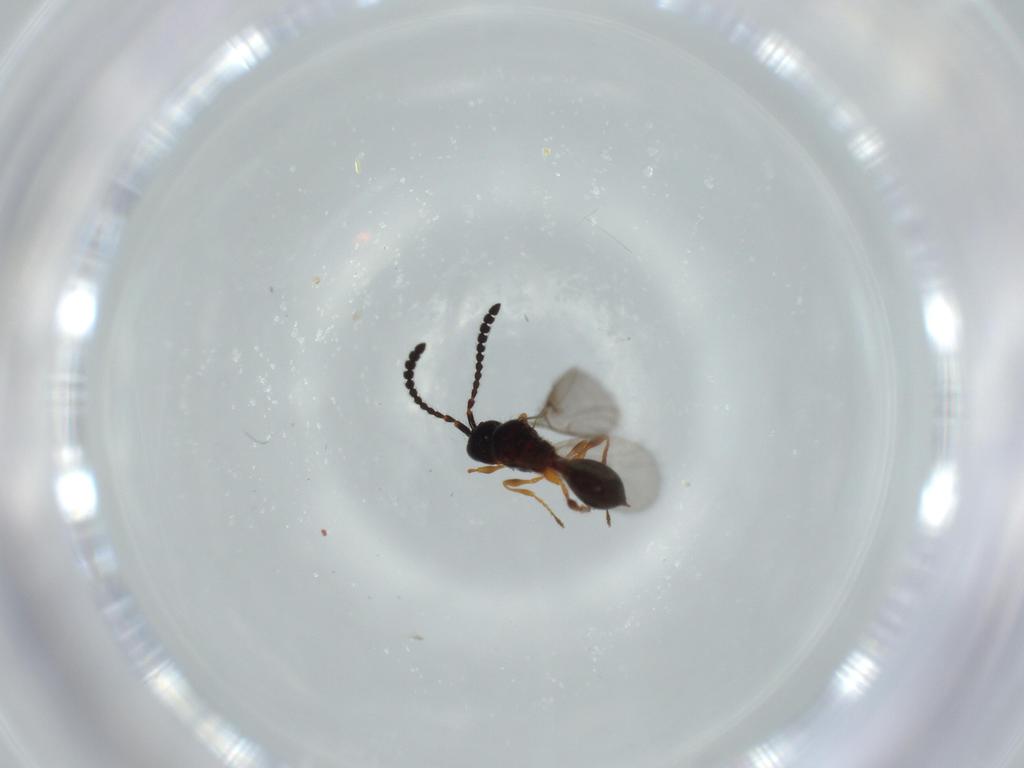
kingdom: Animalia
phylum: Arthropoda
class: Insecta
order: Hymenoptera
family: Diapriidae
